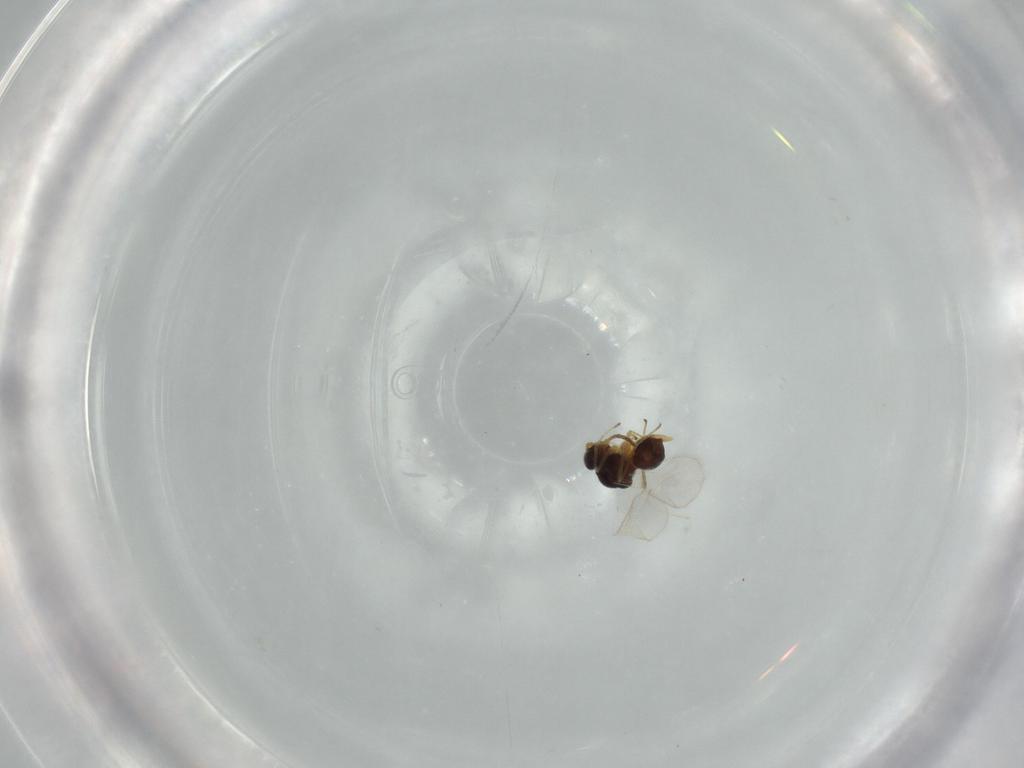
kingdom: Animalia
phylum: Arthropoda
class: Insecta
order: Hymenoptera
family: Figitidae
